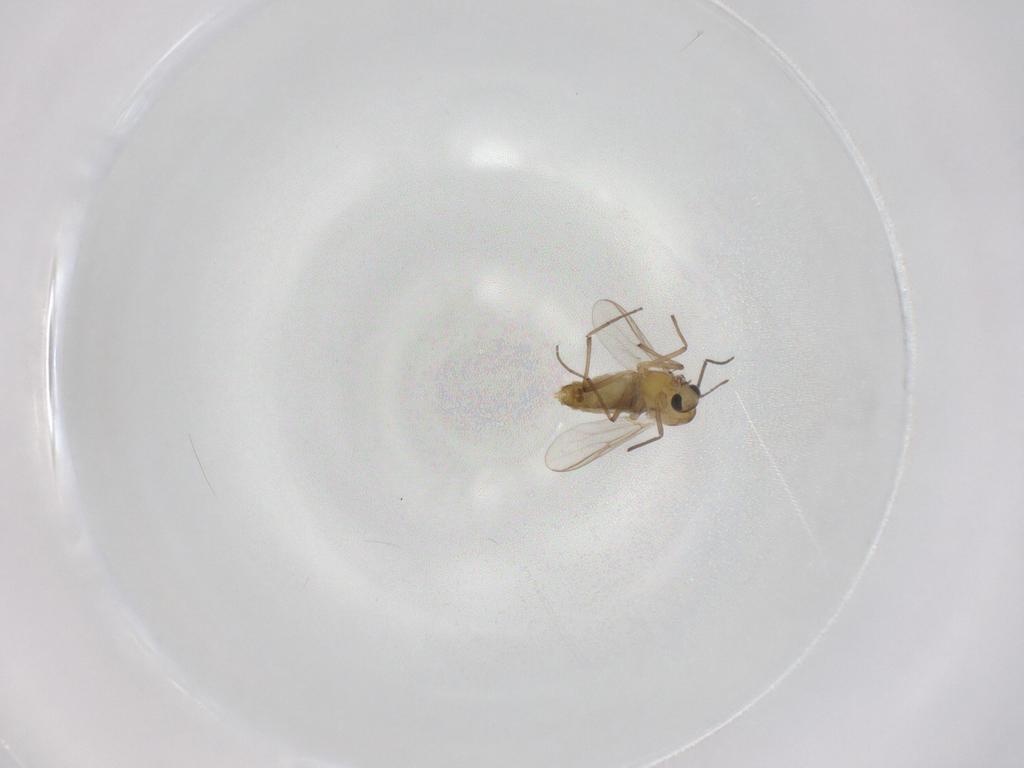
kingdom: Animalia
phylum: Arthropoda
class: Insecta
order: Diptera
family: Chironomidae
